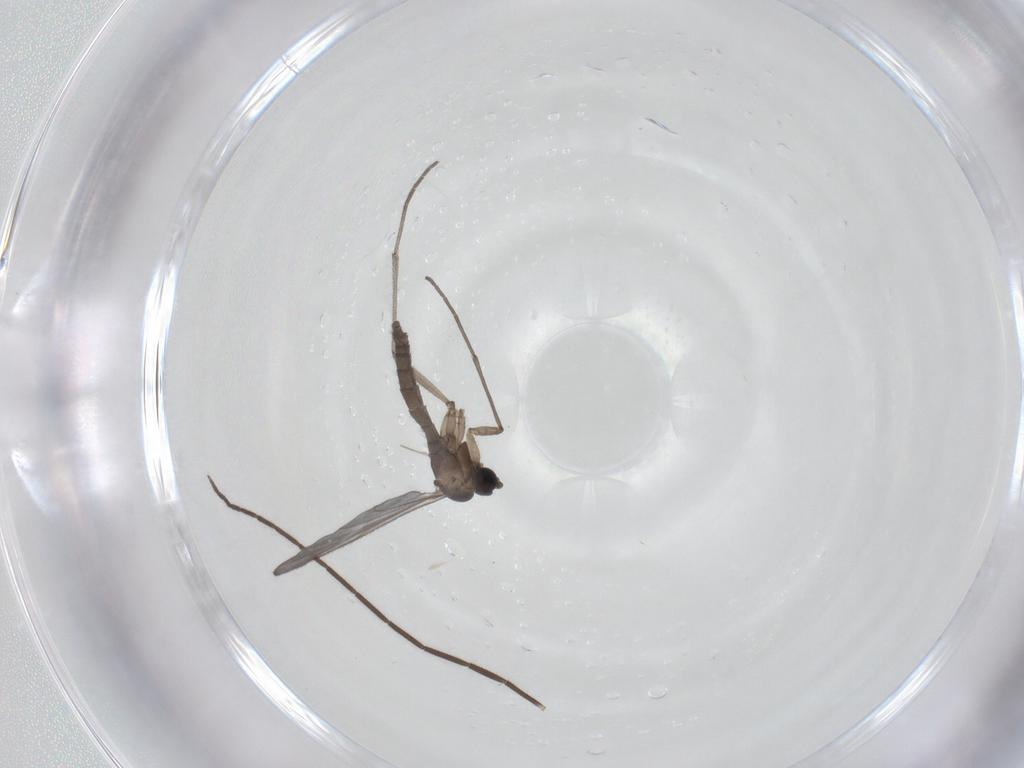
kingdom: Animalia
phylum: Arthropoda
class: Insecta
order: Diptera
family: Sciaridae
